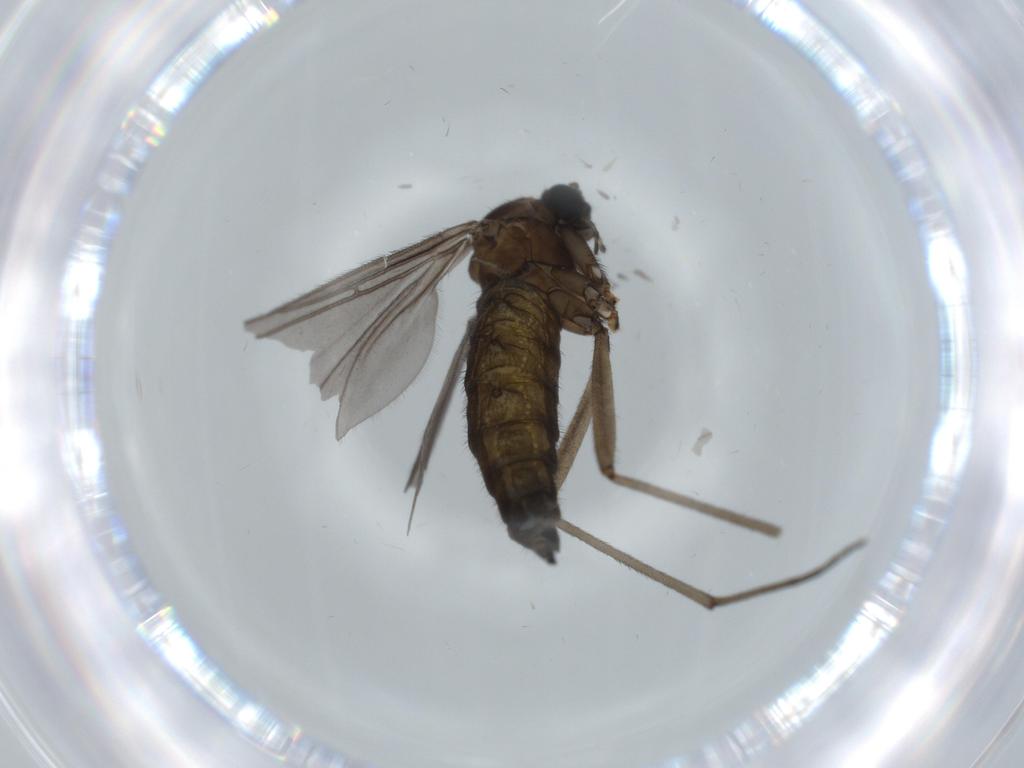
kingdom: Animalia
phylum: Arthropoda
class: Insecta
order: Diptera
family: Sciaridae
